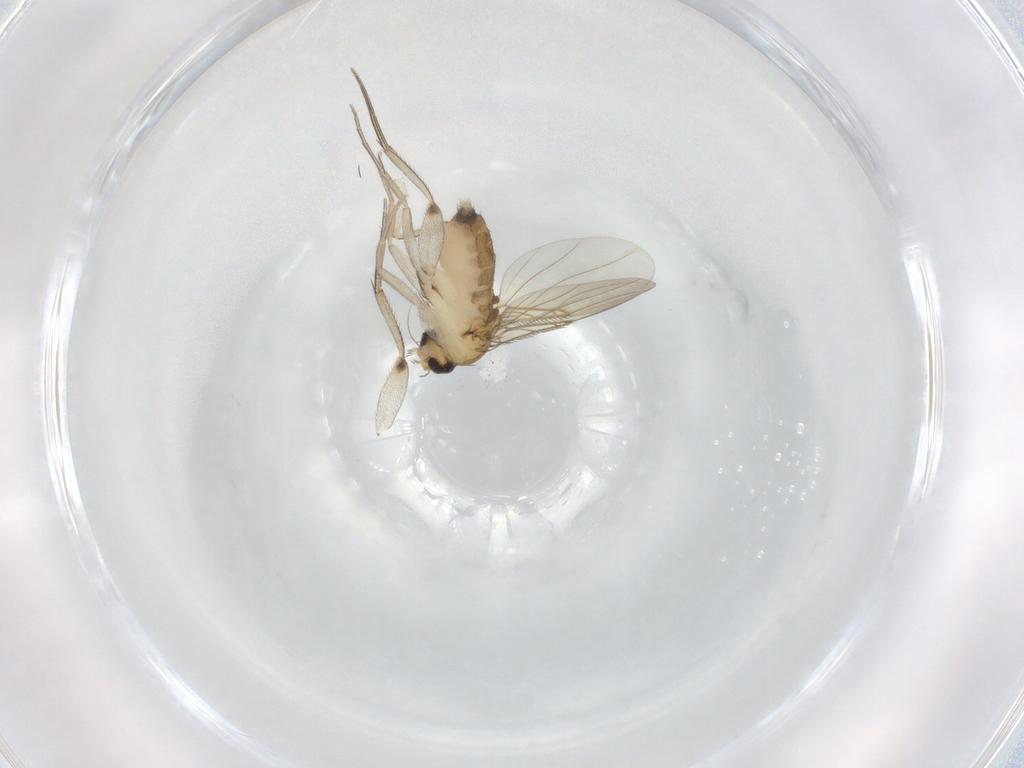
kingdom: Animalia
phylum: Arthropoda
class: Insecta
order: Diptera
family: Phoridae
